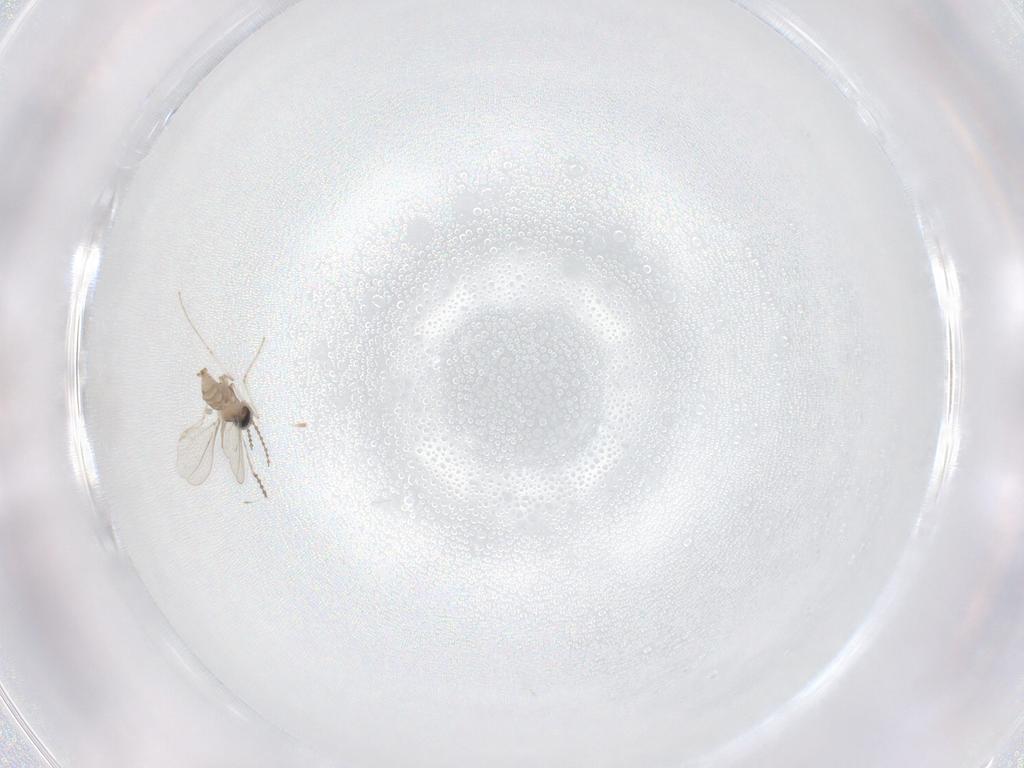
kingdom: Animalia
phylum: Arthropoda
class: Insecta
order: Diptera
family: Cecidomyiidae
